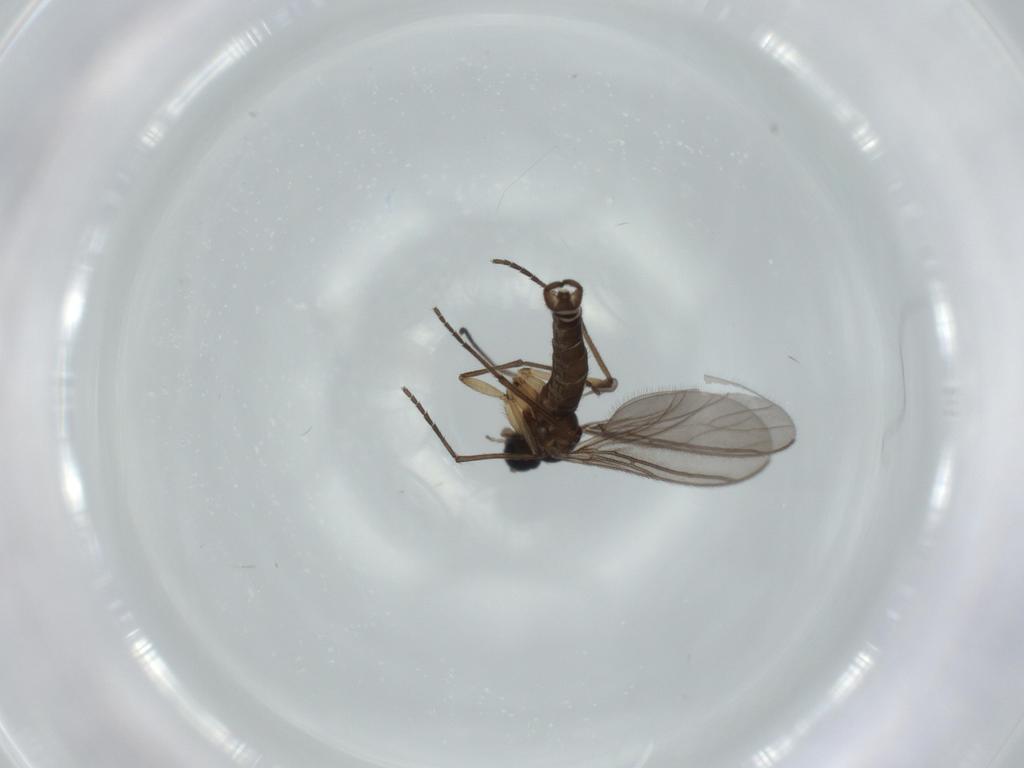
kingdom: Animalia
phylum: Arthropoda
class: Insecta
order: Diptera
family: Sciaridae
